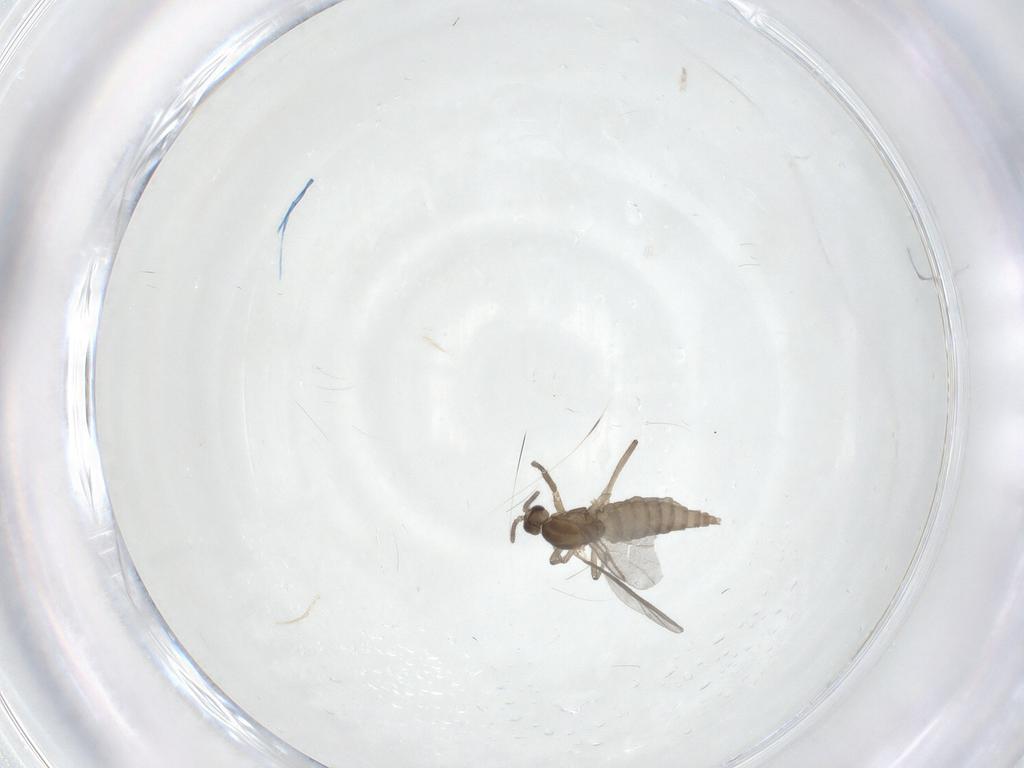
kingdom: Animalia
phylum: Arthropoda
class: Insecta
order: Diptera
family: Cecidomyiidae
